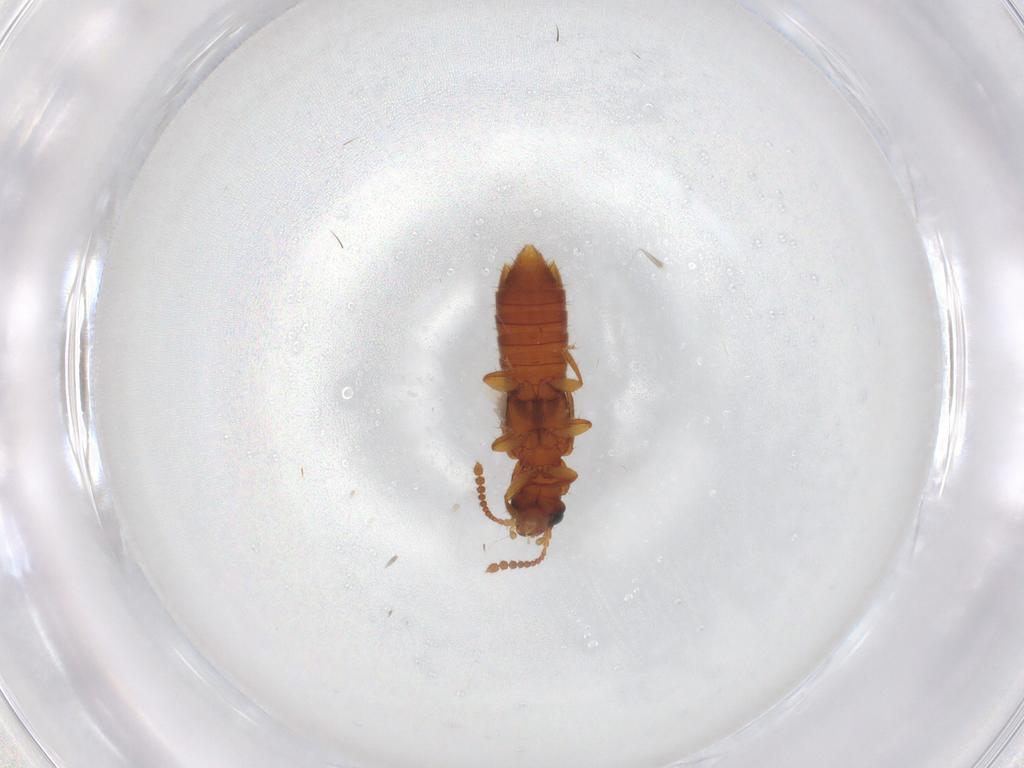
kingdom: Animalia
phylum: Arthropoda
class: Insecta
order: Coleoptera
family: Staphylinidae
